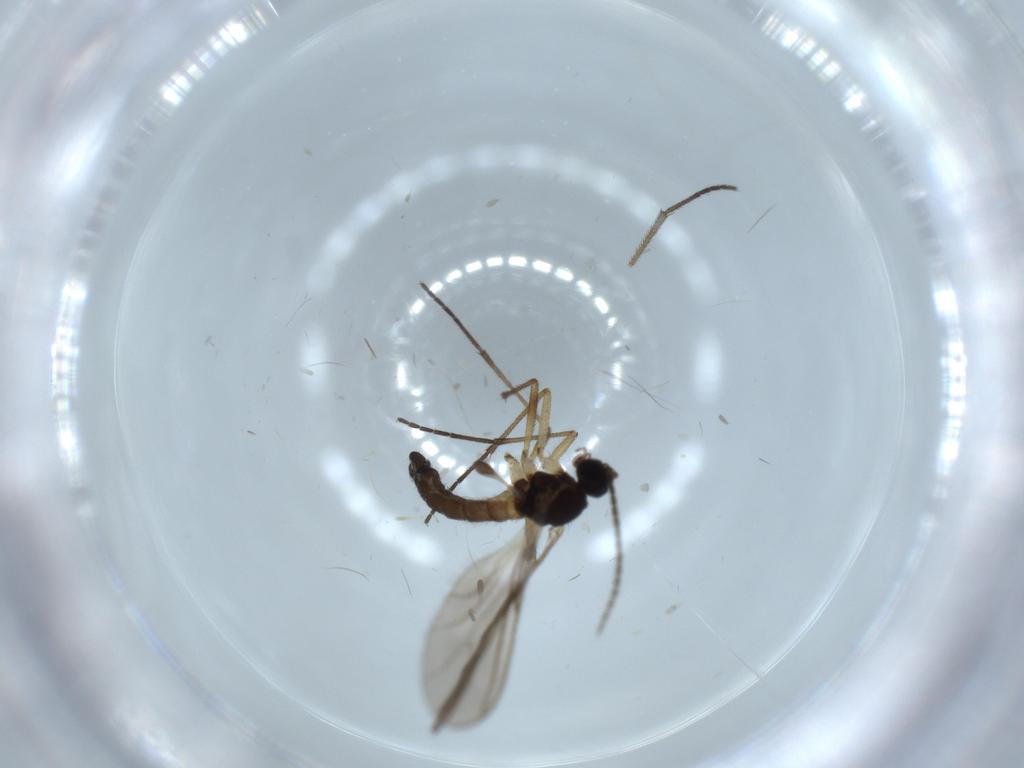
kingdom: Animalia
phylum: Arthropoda
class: Insecta
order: Diptera
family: Sciaridae
